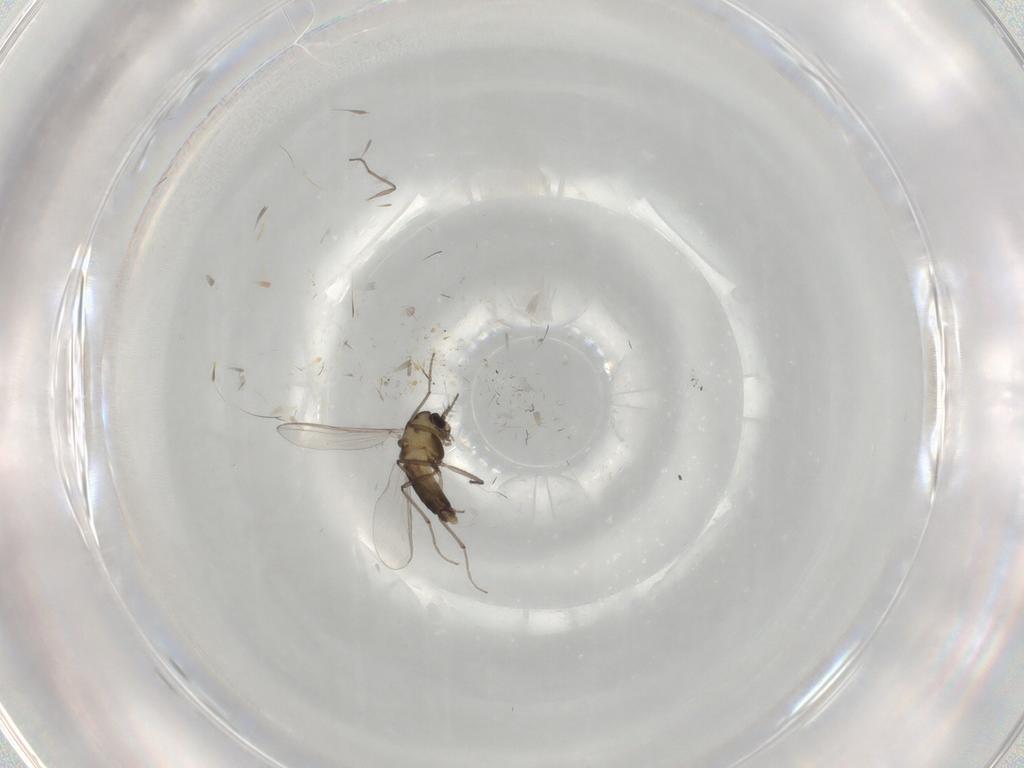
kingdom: Animalia
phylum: Arthropoda
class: Insecta
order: Diptera
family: Chironomidae
